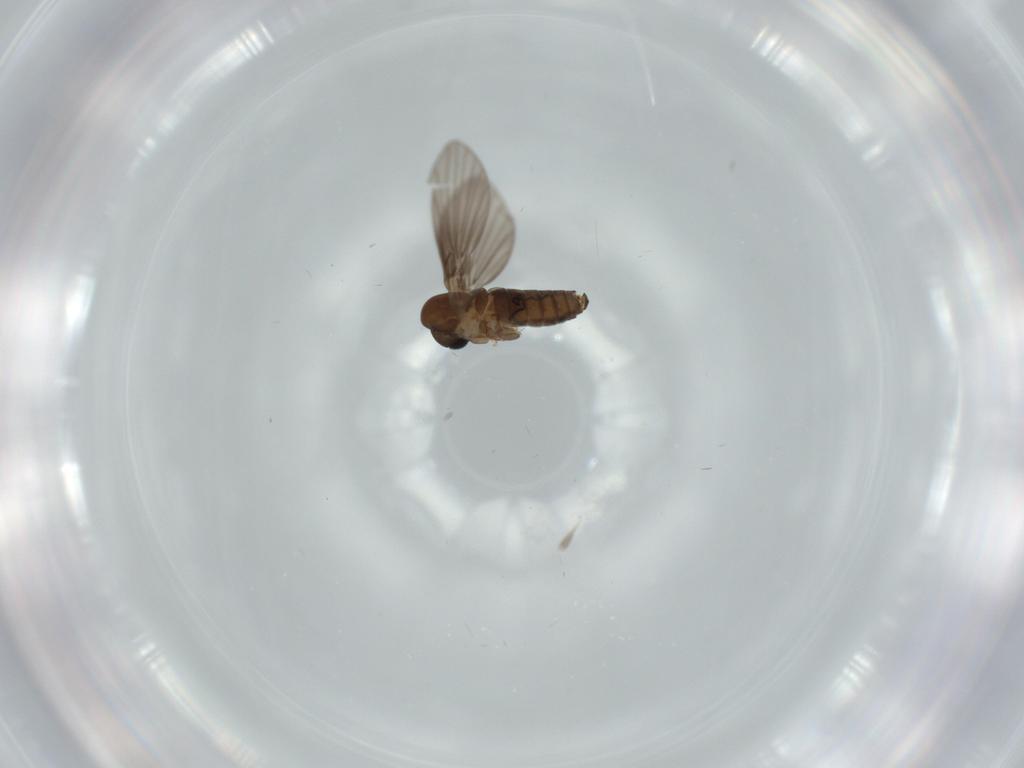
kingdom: Animalia
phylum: Arthropoda
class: Insecta
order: Diptera
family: Psychodidae
